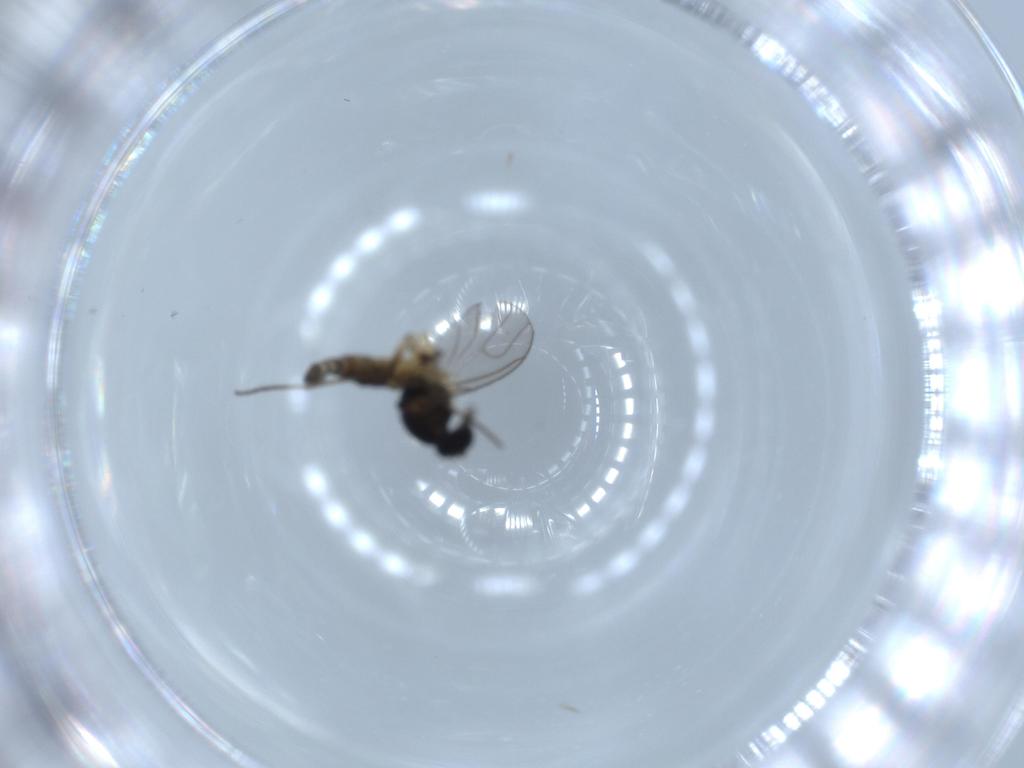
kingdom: Animalia
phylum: Arthropoda
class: Insecta
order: Diptera
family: Sciaridae
